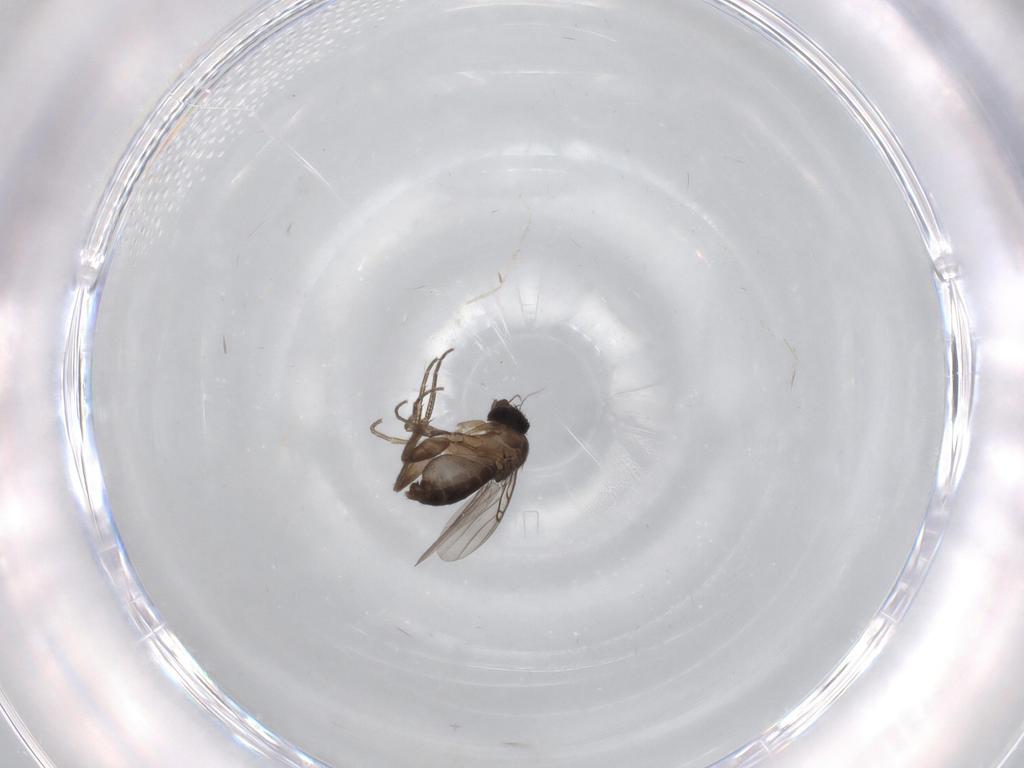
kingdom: Animalia
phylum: Arthropoda
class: Insecta
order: Diptera
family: Phoridae
